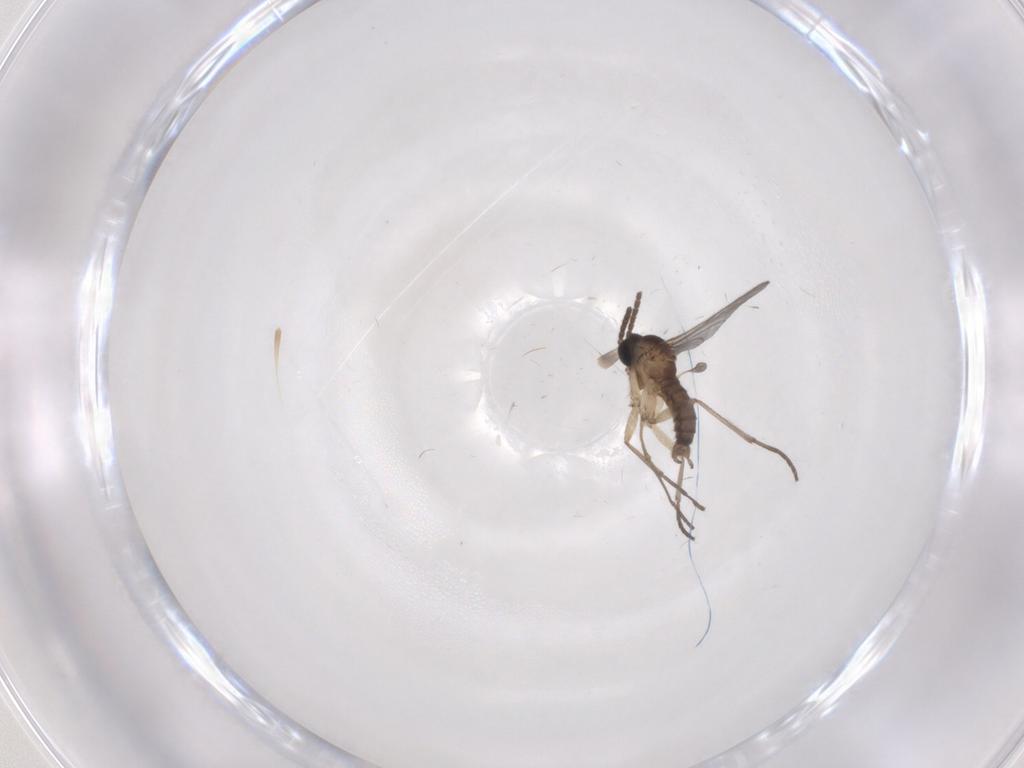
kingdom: Animalia
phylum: Arthropoda
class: Insecta
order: Diptera
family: Sciaridae
